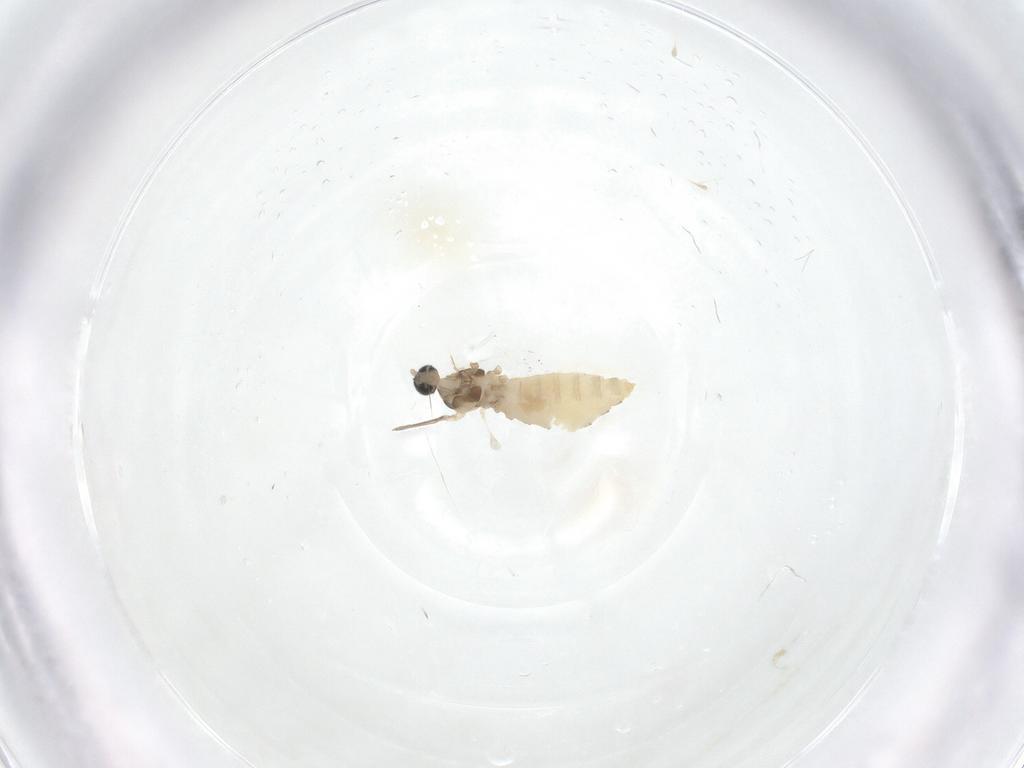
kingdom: Animalia
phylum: Arthropoda
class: Insecta
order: Diptera
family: Cecidomyiidae
